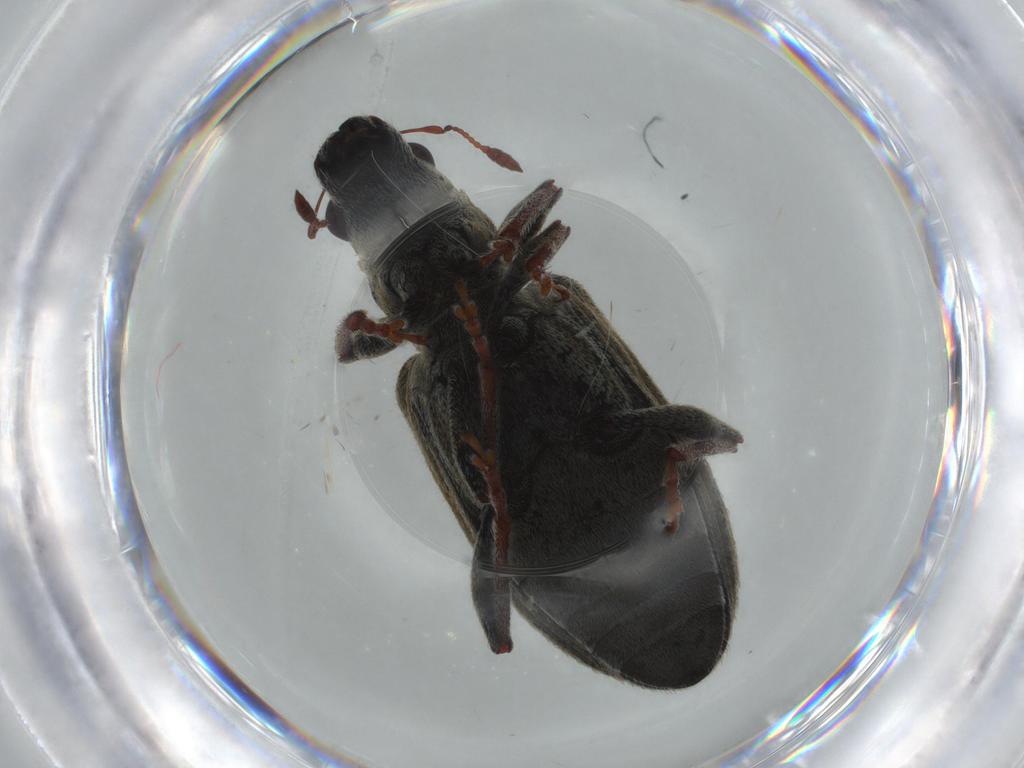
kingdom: Animalia
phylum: Arthropoda
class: Insecta
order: Coleoptera
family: Curculionidae
